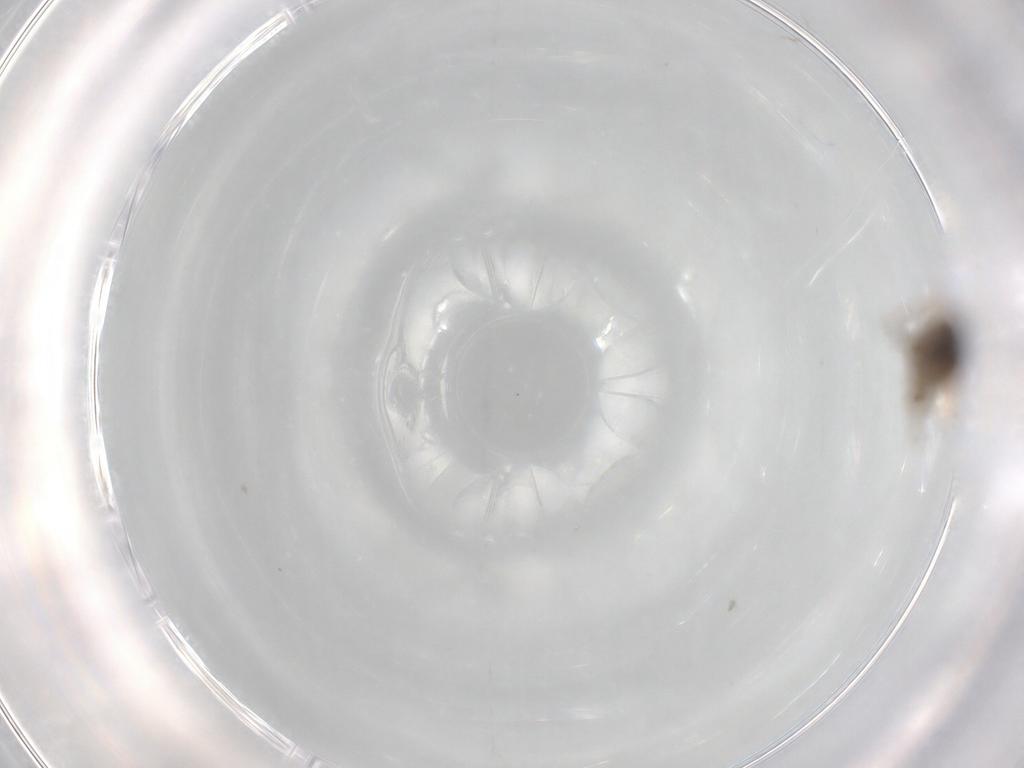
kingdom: Animalia
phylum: Arthropoda
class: Insecta
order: Diptera
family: Cecidomyiidae
